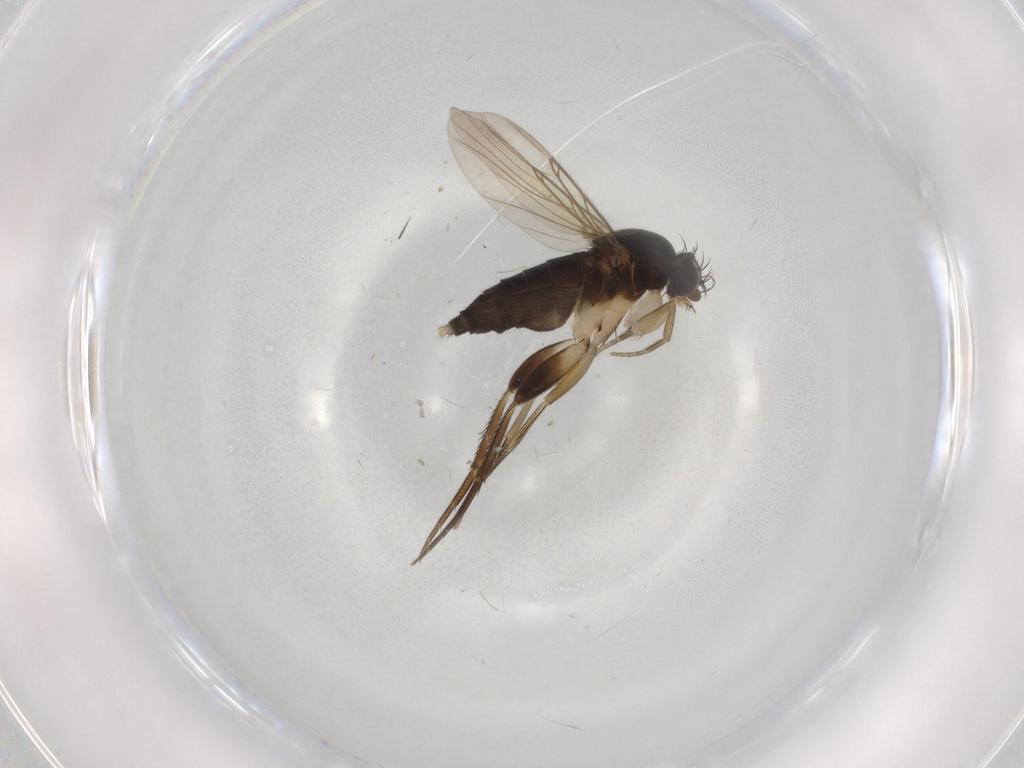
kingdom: Animalia
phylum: Arthropoda
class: Insecta
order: Diptera
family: Phoridae
